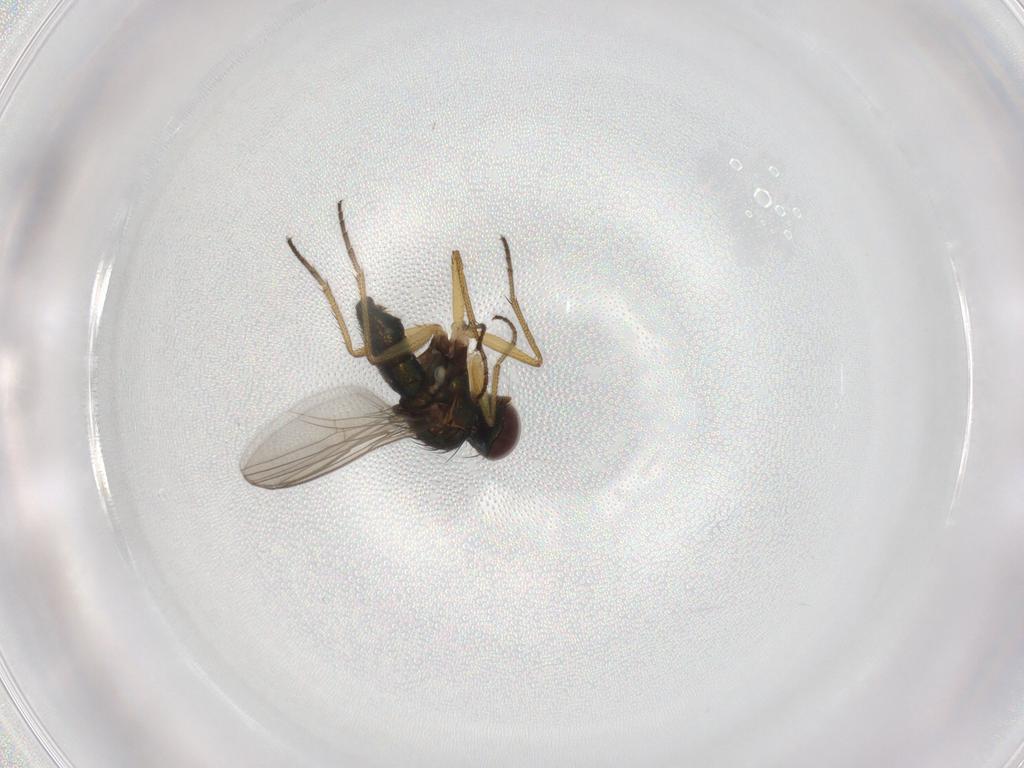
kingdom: Animalia
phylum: Arthropoda
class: Insecta
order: Diptera
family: Dolichopodidae
